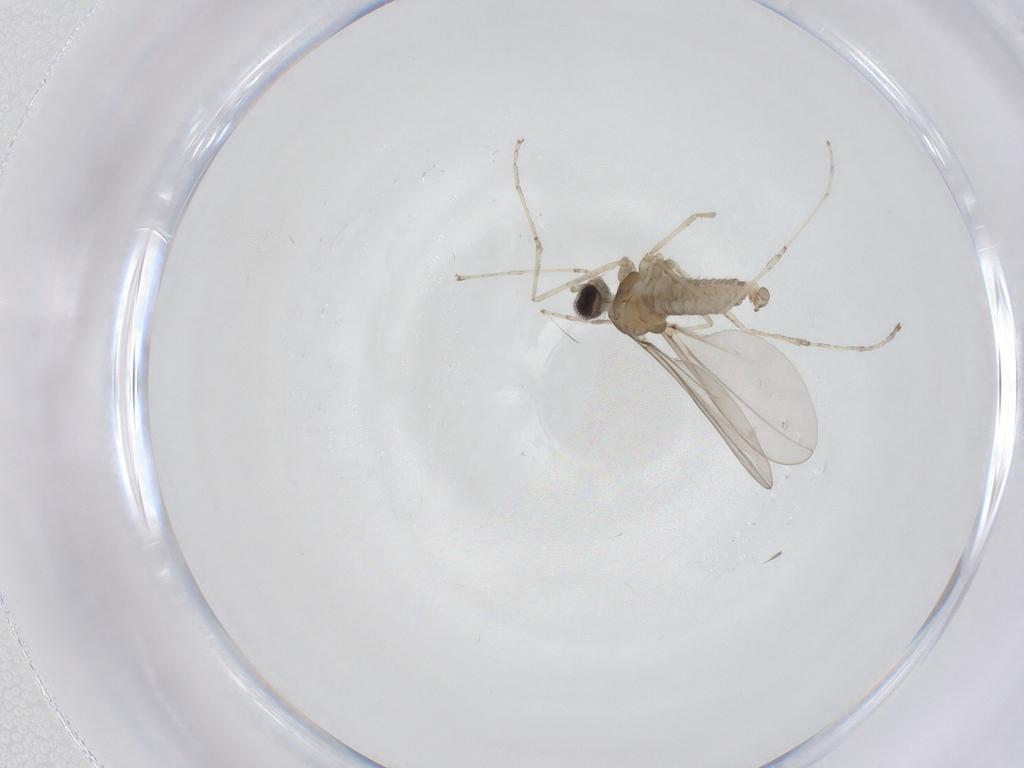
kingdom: Animalia
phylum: Arthropoda
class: Insecta
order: Diptera
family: Cecidomyiidae
